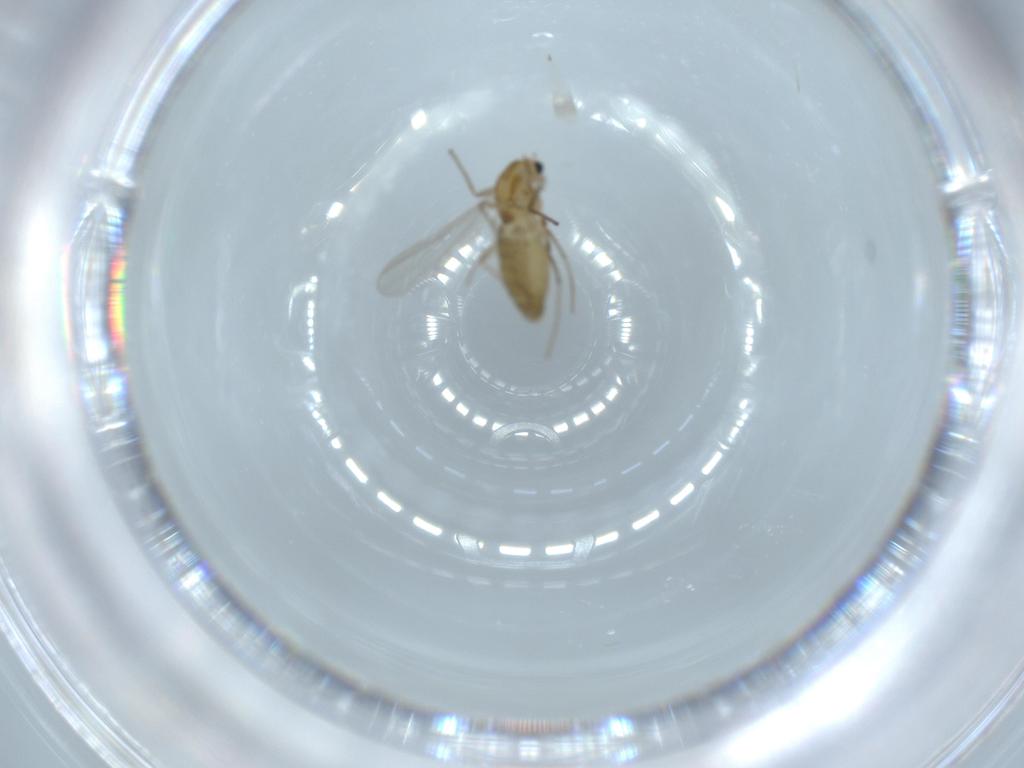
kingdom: Animalia
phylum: Arthropoda
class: Insecta
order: Diptera
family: Chironomidae
